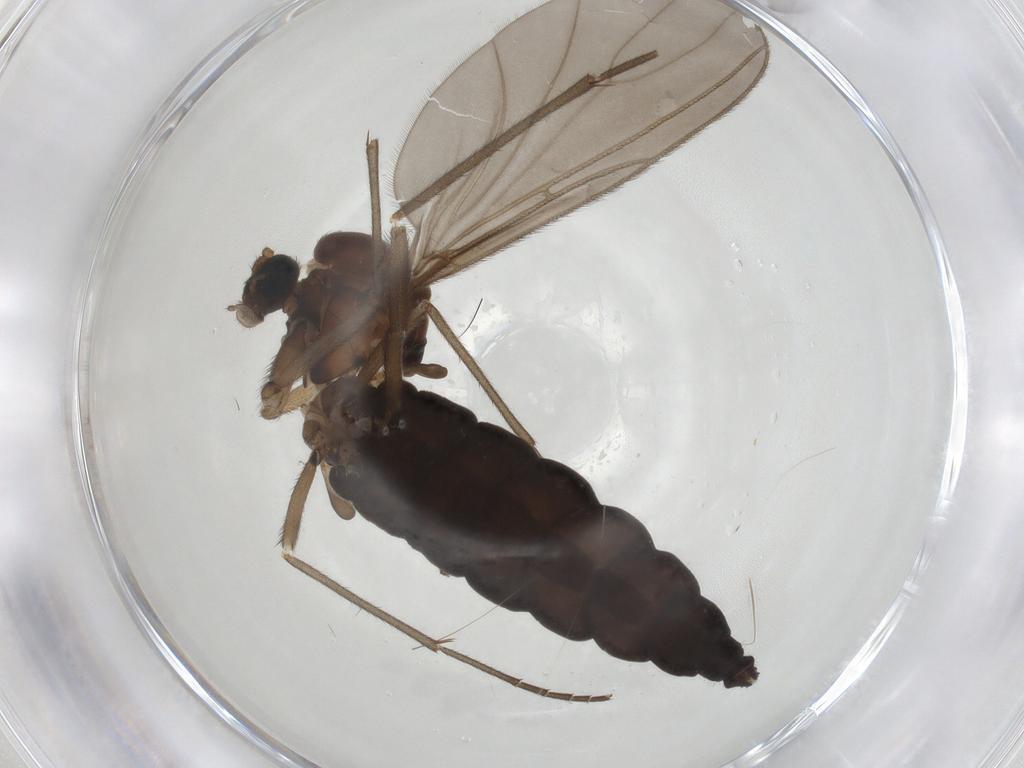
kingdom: Animalia
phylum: Arthropoda
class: Insecta
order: Diptera
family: Sciaridae
